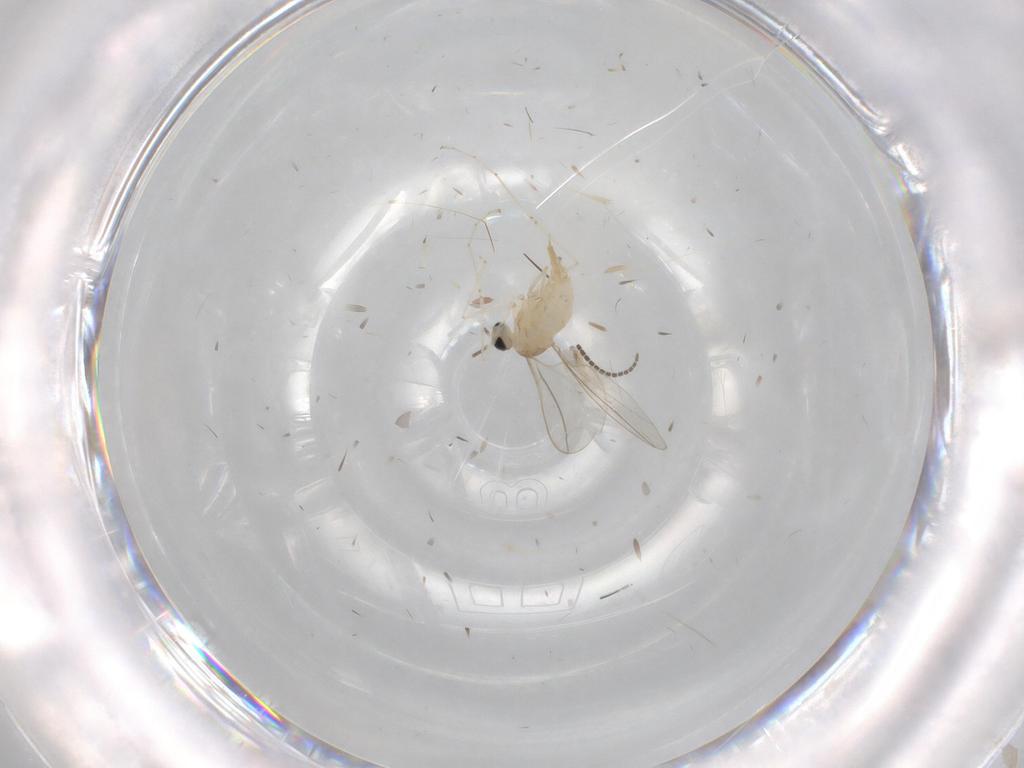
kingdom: Animalia
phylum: Arthropoda
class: Insecta
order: Diptera
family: Cecidomyiidae
